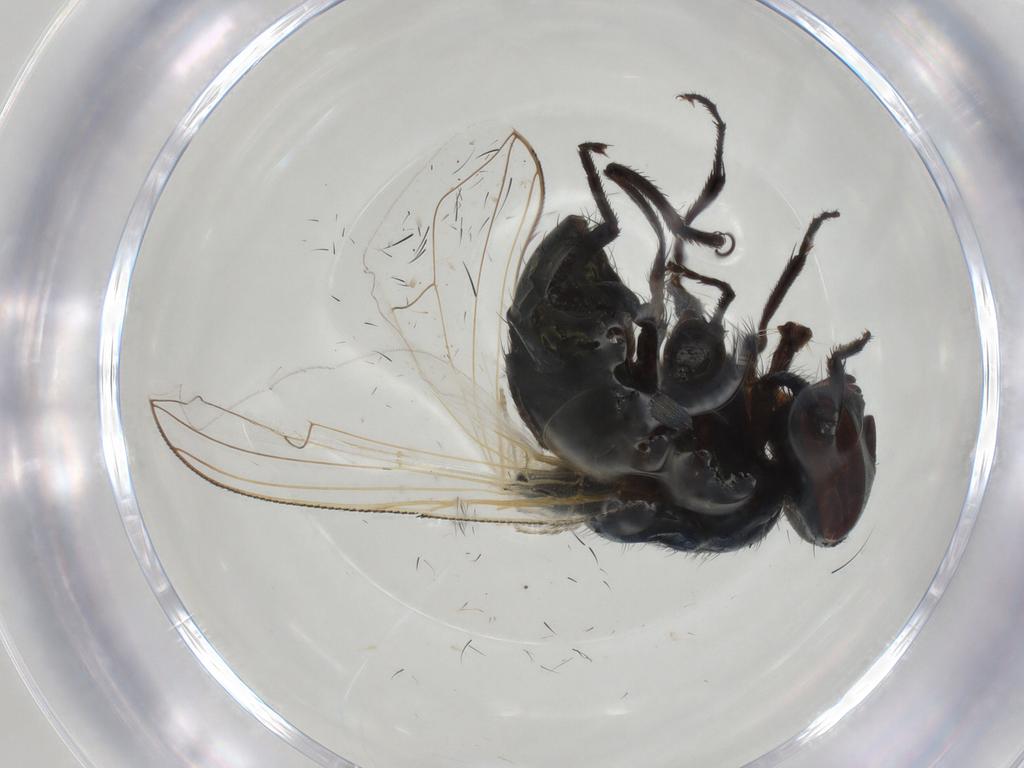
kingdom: Animalia
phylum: Arthropoda
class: Insecta
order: Diptera
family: Muscidae
